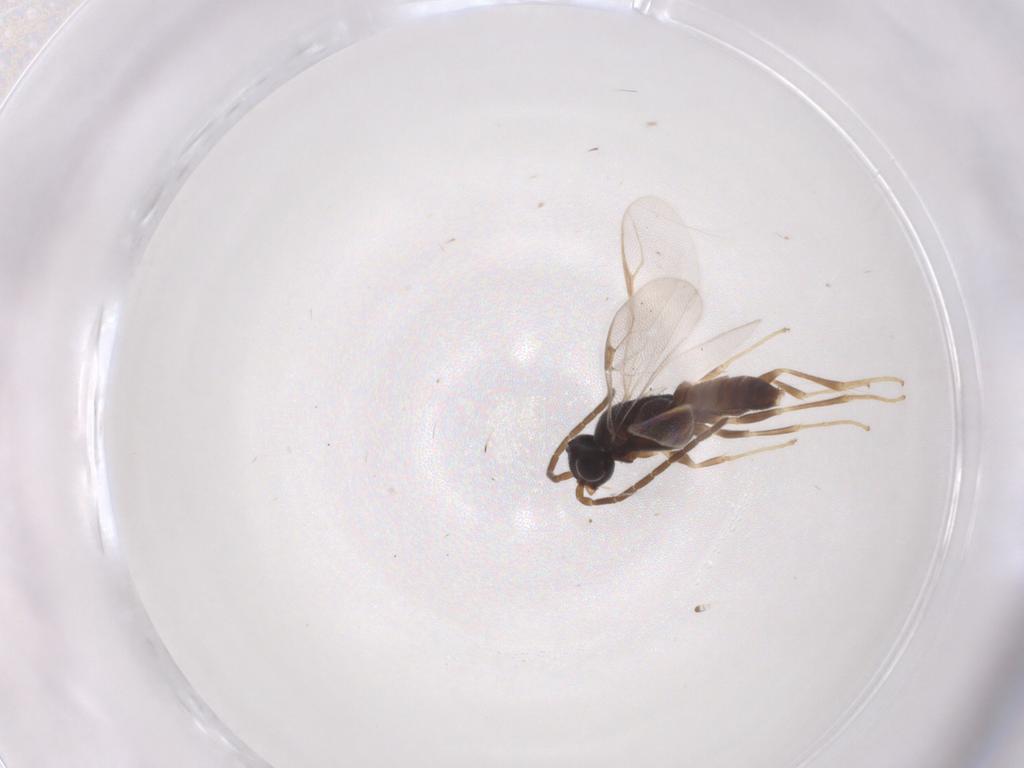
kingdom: Animalia
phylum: Arthropoda
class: Insecta
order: Hymenoptera
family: Dryinidae
